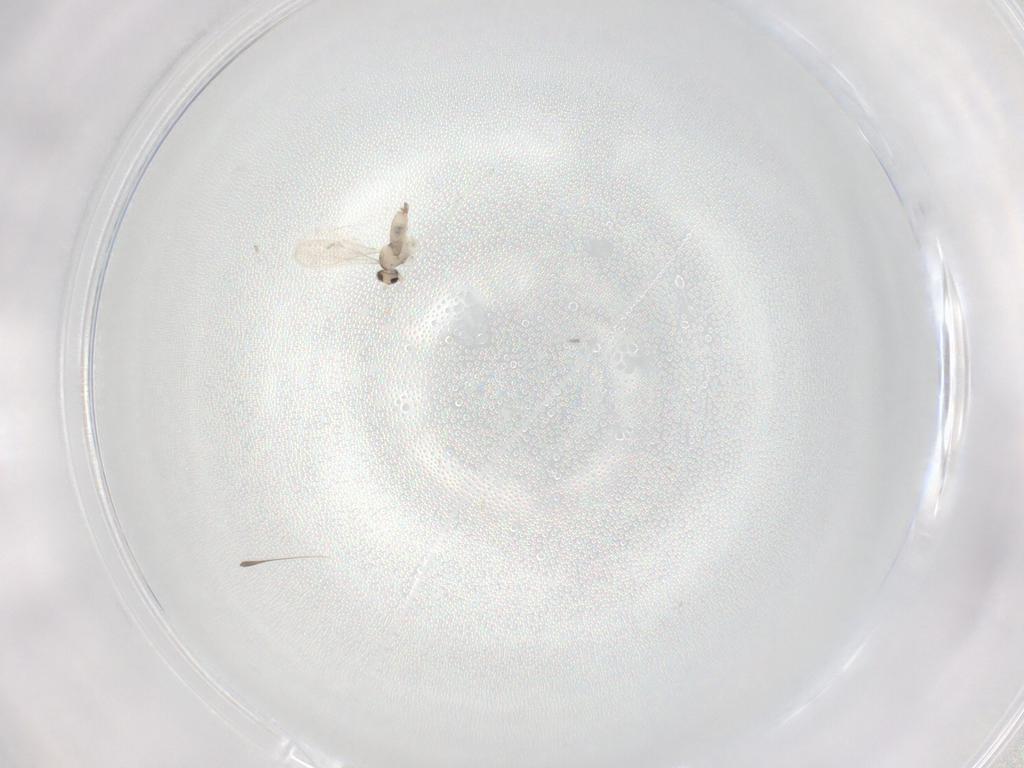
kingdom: Animalia
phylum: Arthropoda
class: Insecta
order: Diptera
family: Cecidomyiidae
